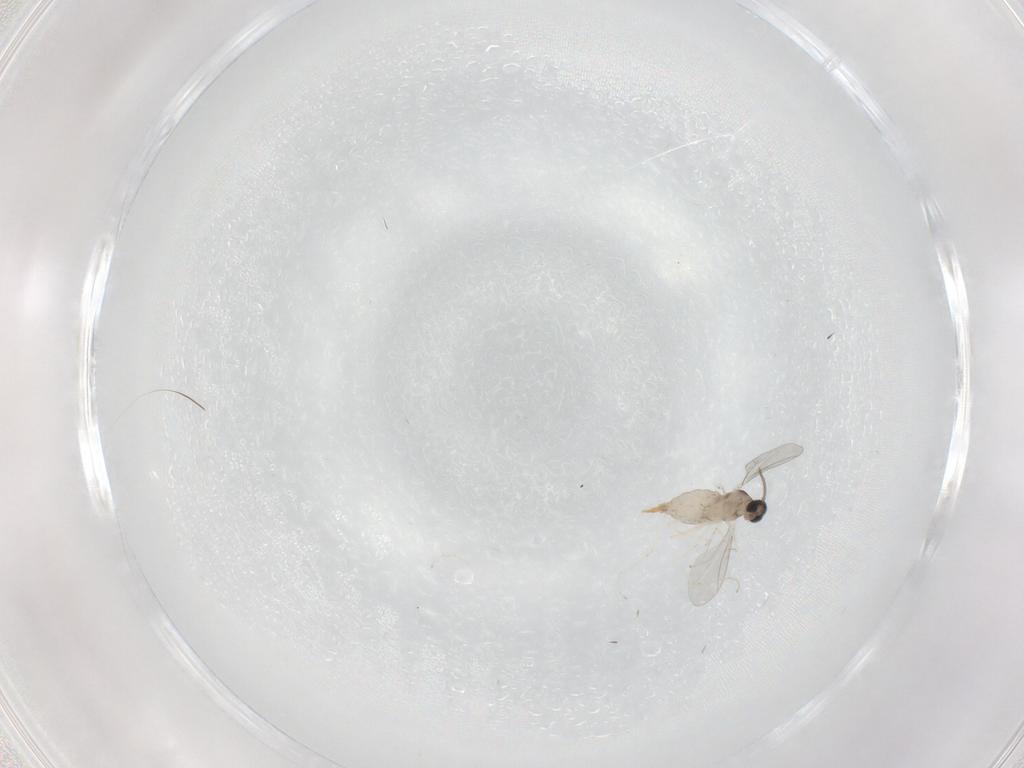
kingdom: Animalia
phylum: Arthropoda
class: Insecta
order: Diptera
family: Cecidomyiidae
